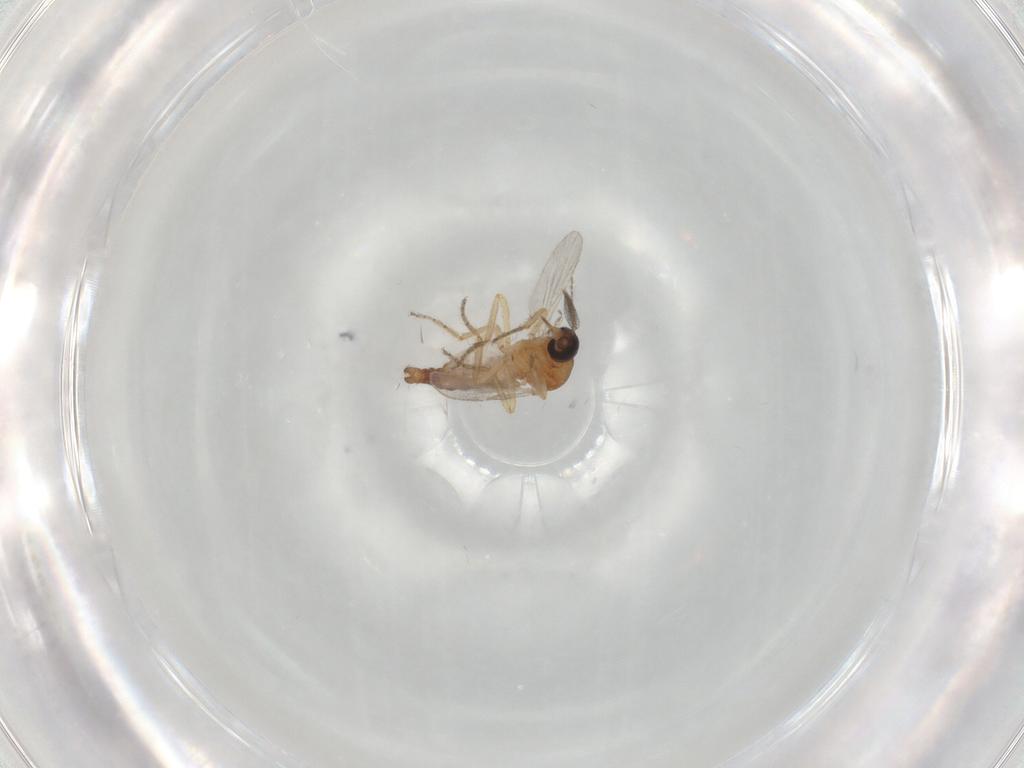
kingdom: Animalia
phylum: Arthropoda
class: Insecta
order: Diptera
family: Ceratopogonidae
